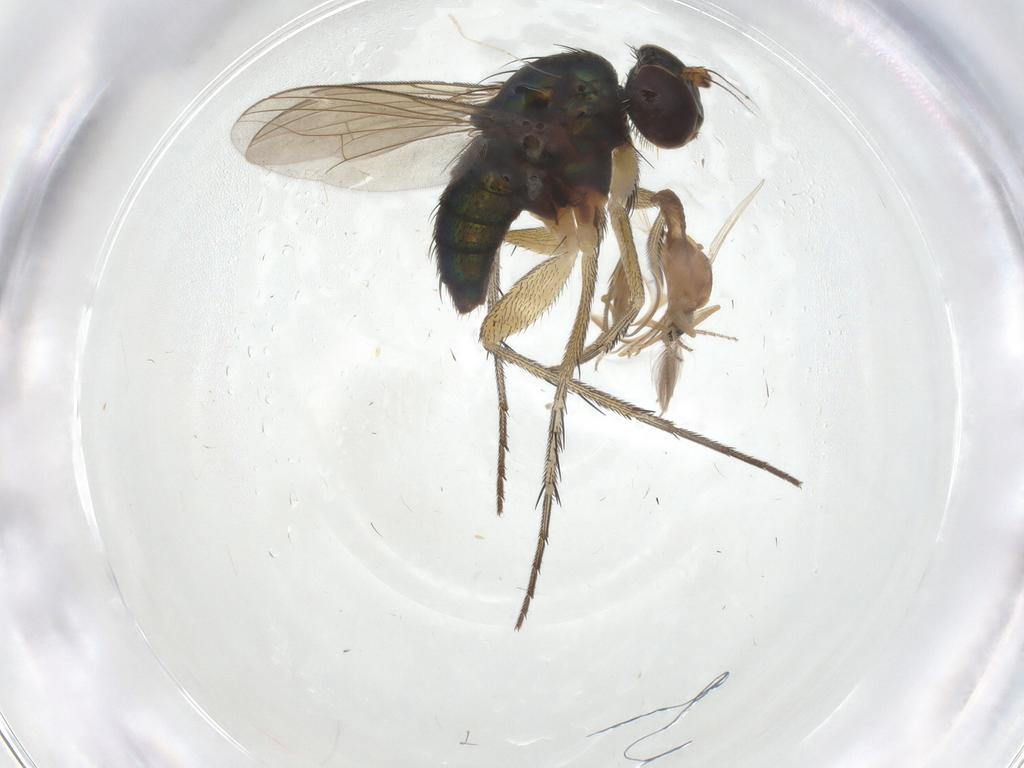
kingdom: Animalia
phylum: Arthropoda
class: Insecta
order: Diptera
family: Ceratopogonidae
